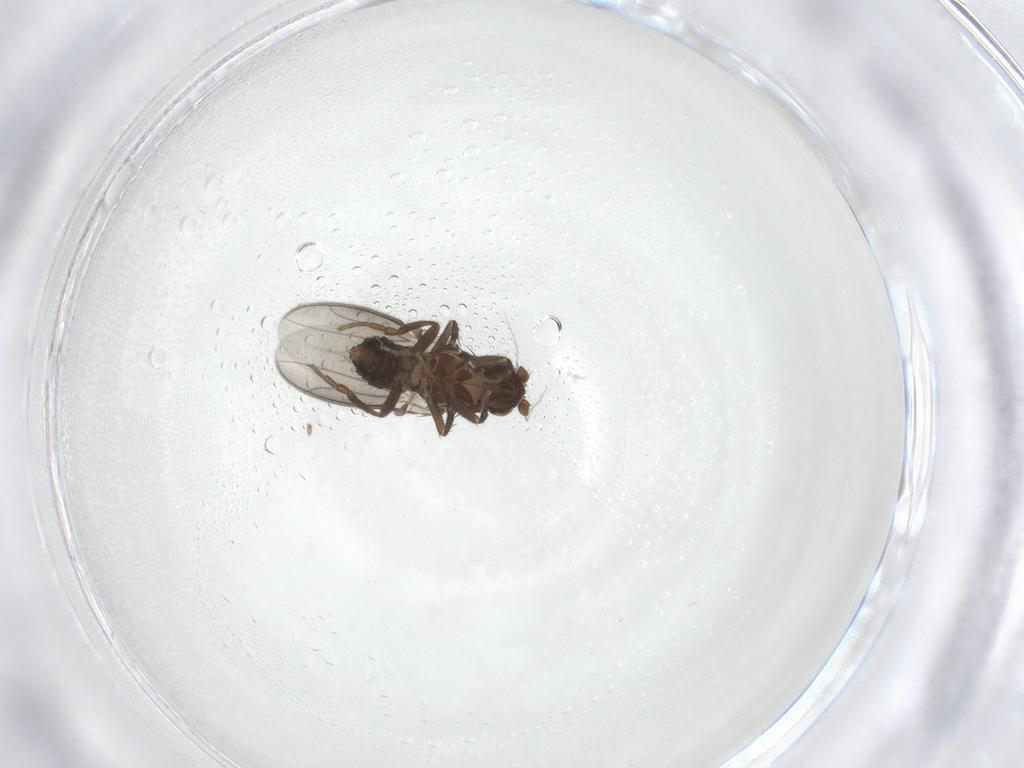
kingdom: Animalia
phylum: Arthropoda
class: Insecta
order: Diptera
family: Sphaeroceridae
